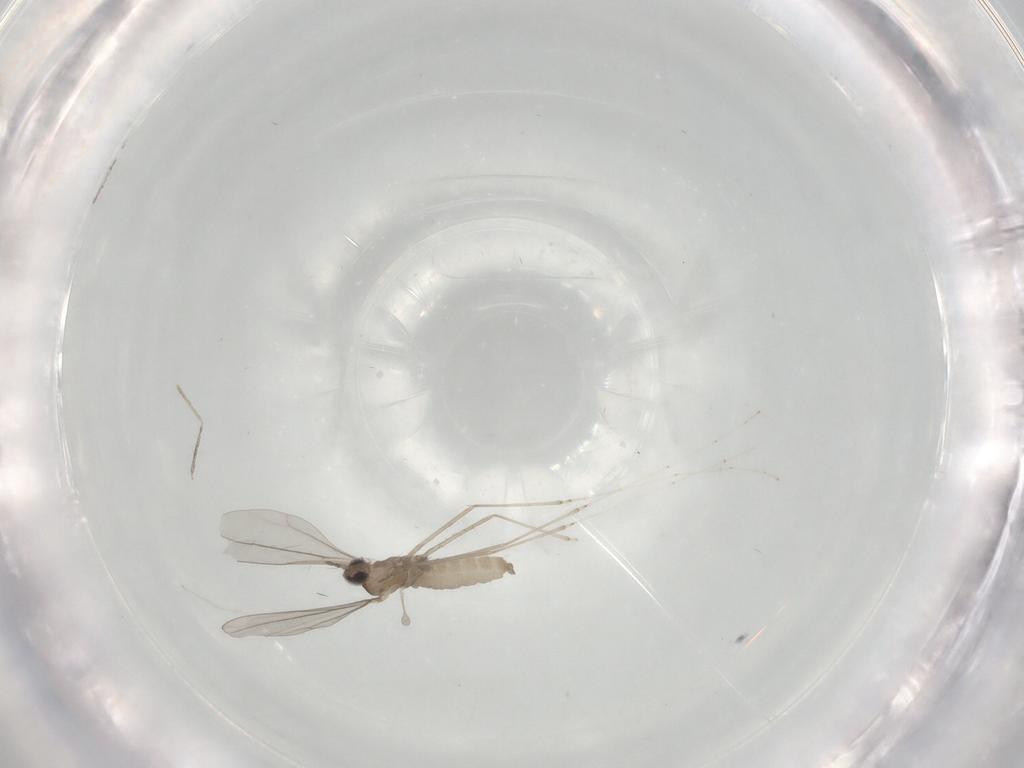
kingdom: Animalia
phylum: Arthropoda
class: Insecta
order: Diptera
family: Cecidomyiidae
